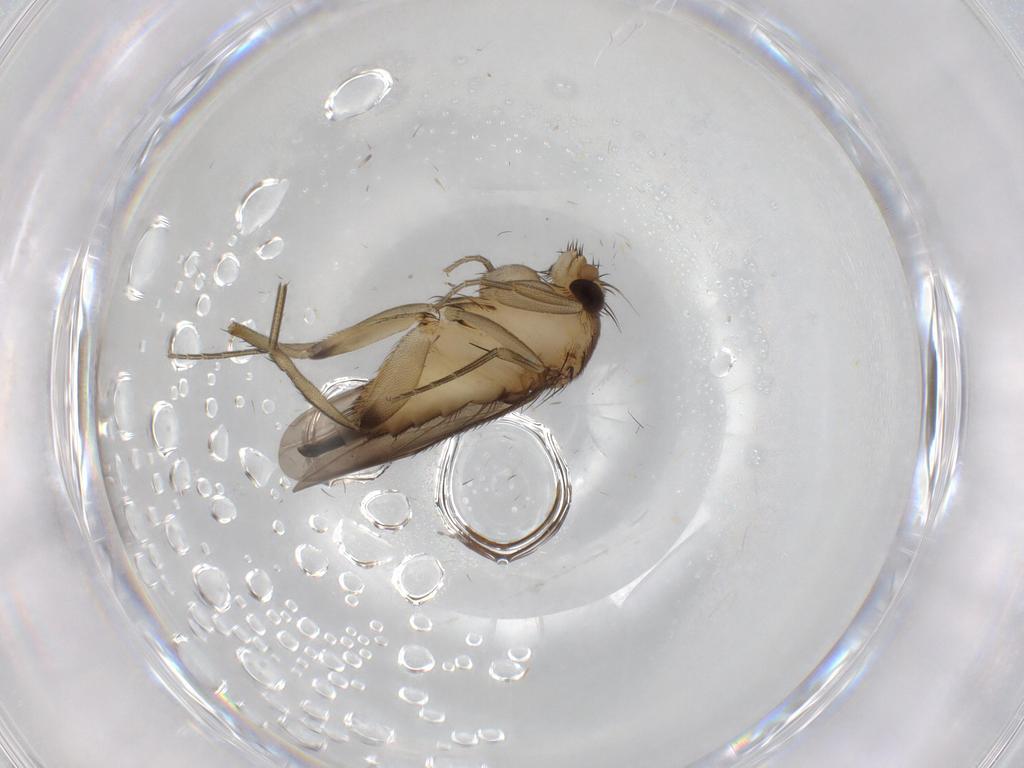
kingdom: Animalia
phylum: Arthropoda
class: Insecta
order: Diptera
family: Phoridae
